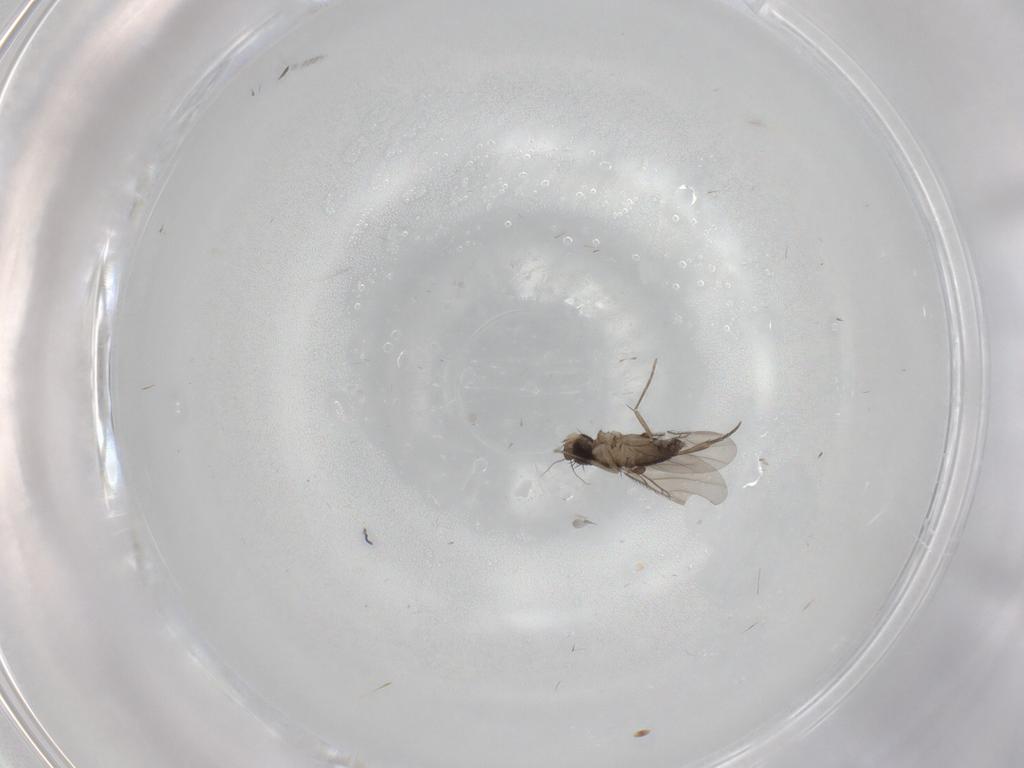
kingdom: Animalia
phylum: Arthropoda
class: Insecta
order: Diptera
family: Phoridae
